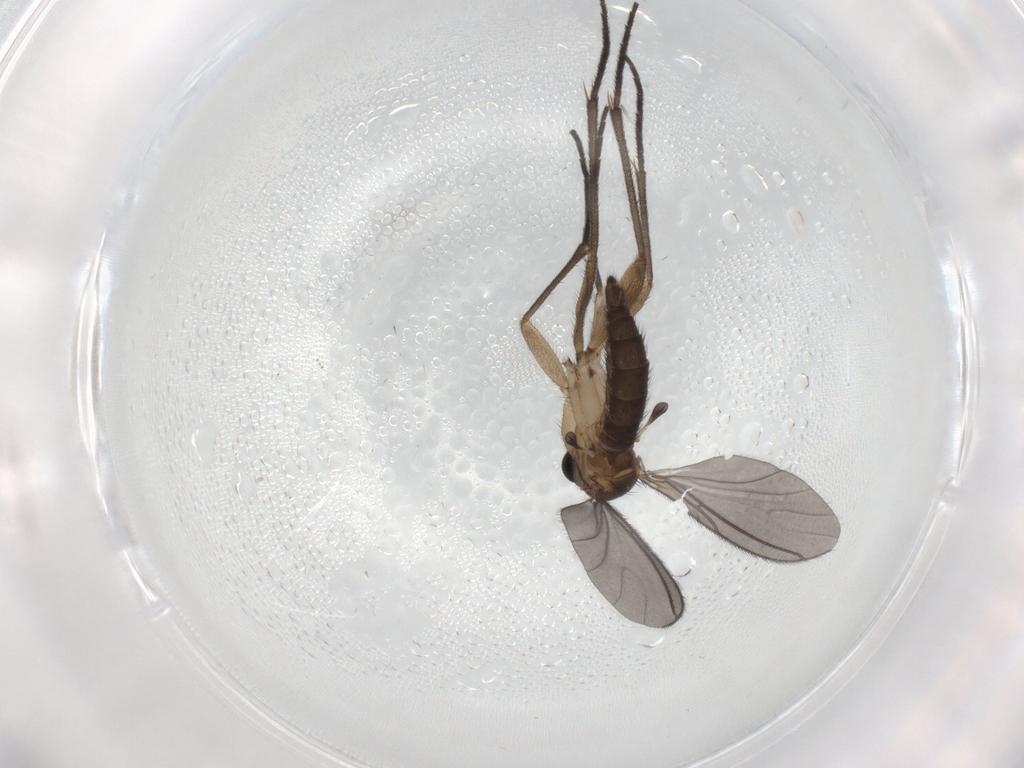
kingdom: Animalia
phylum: Arthropoda
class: Insecta
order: Diptera
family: Sciaridae
